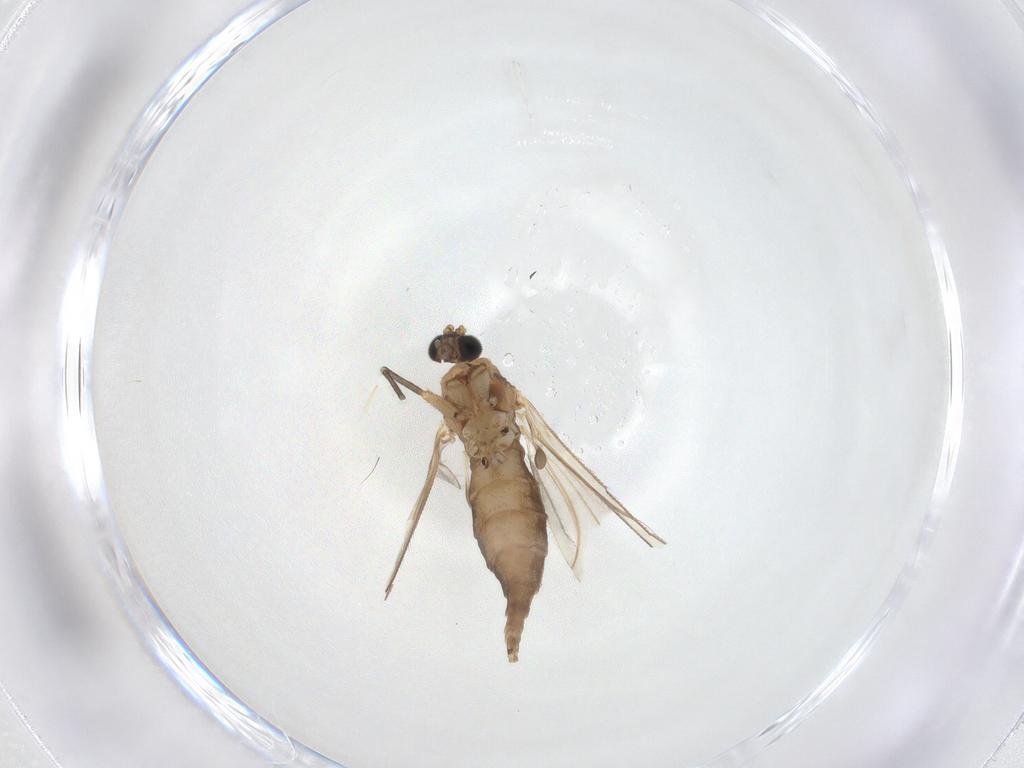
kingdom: Animalia
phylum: Arthropoda
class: Insecta
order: Diptera
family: Sciaridae
